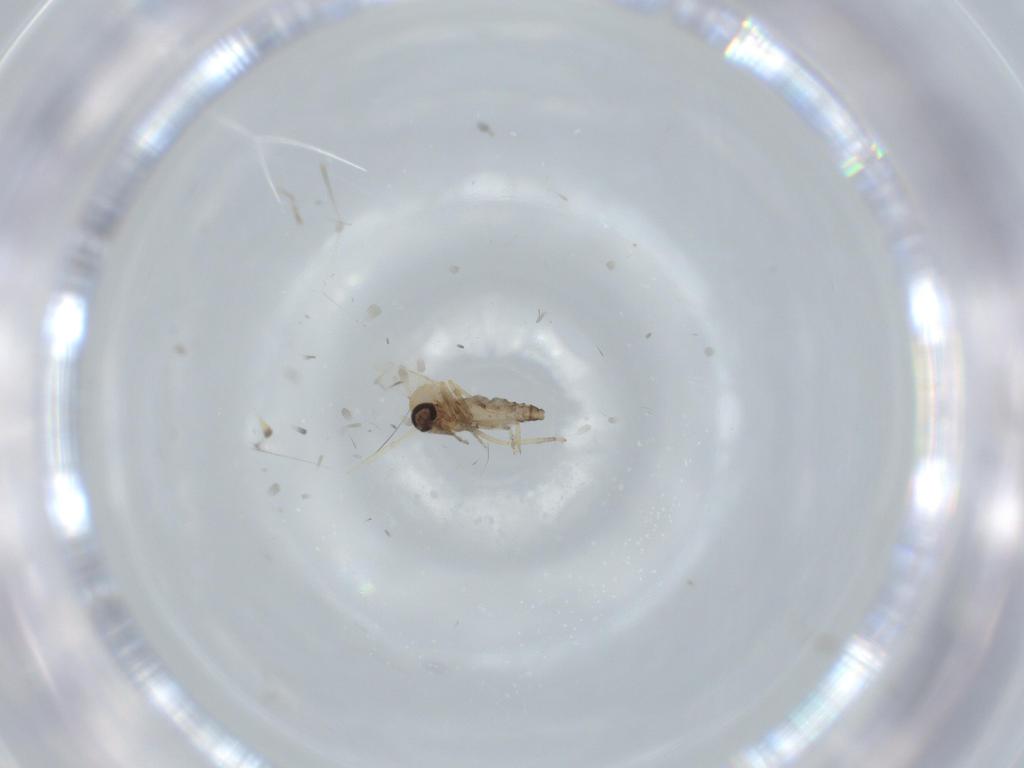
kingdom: Animalia
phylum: Arthropoda
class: Insecta
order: Diptera
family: Ceratopogonidae
